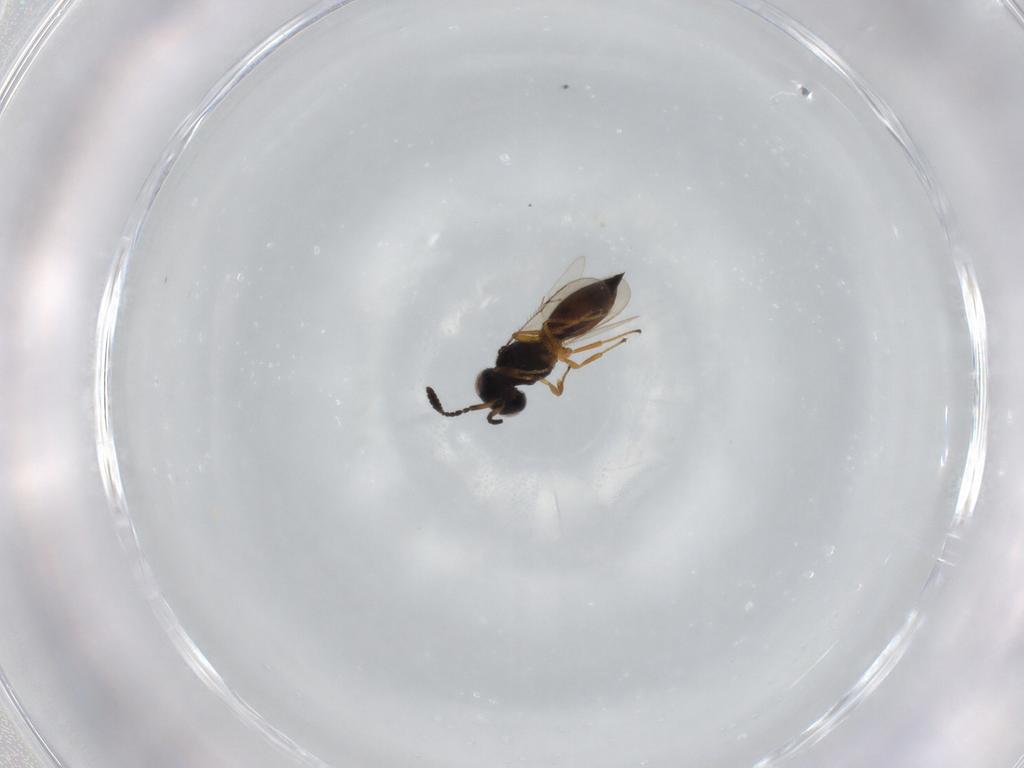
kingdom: Animalia
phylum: Arthropoda
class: Insecta
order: Hymenoptera
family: Scelionidae
